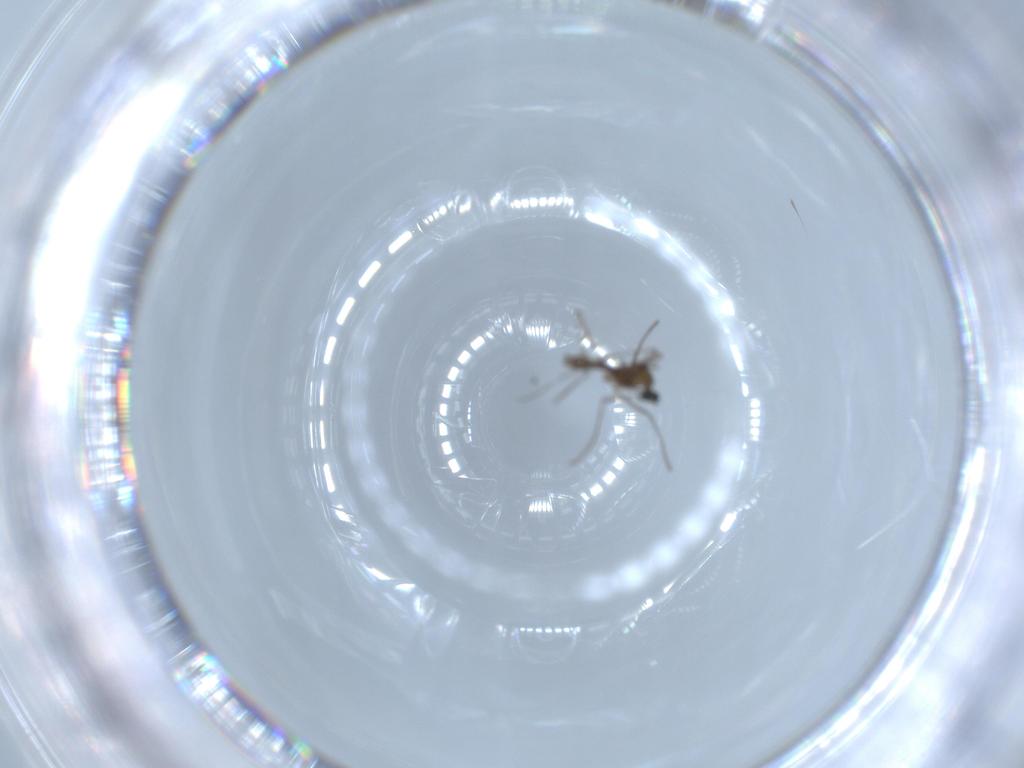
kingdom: Animalia
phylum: Arthropoda
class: Insecta
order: Diptera
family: Cecidomyiidae
